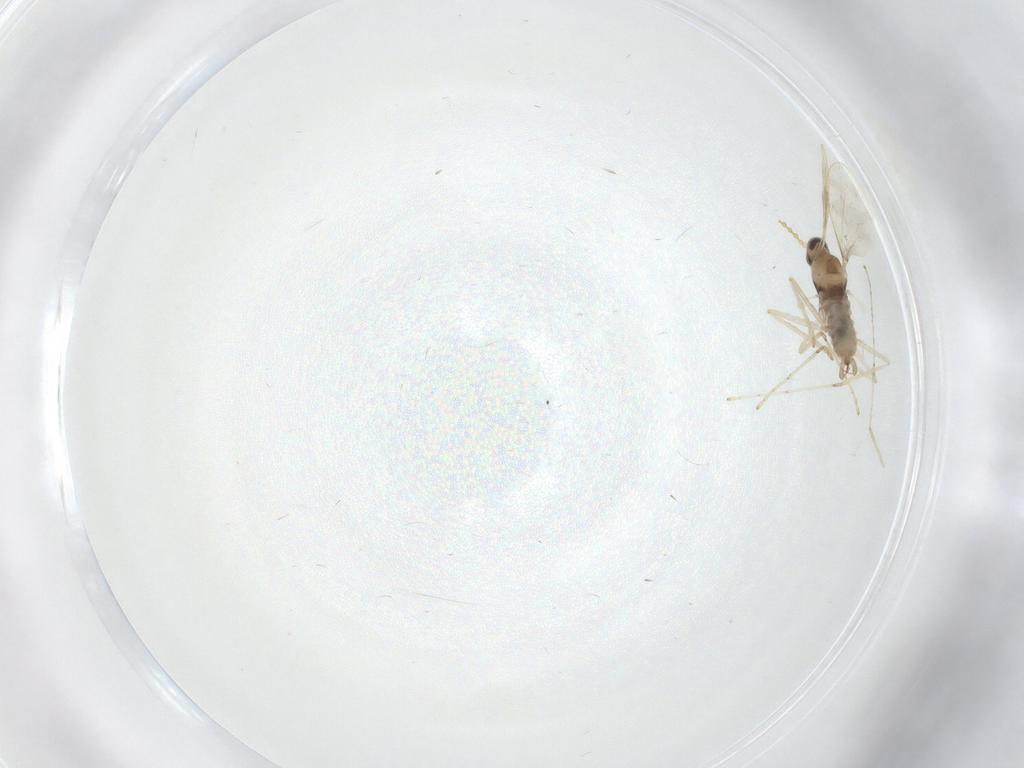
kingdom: Animalia
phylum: Arthropoda
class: Insecta
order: Diptera
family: Cecidomyiidae
